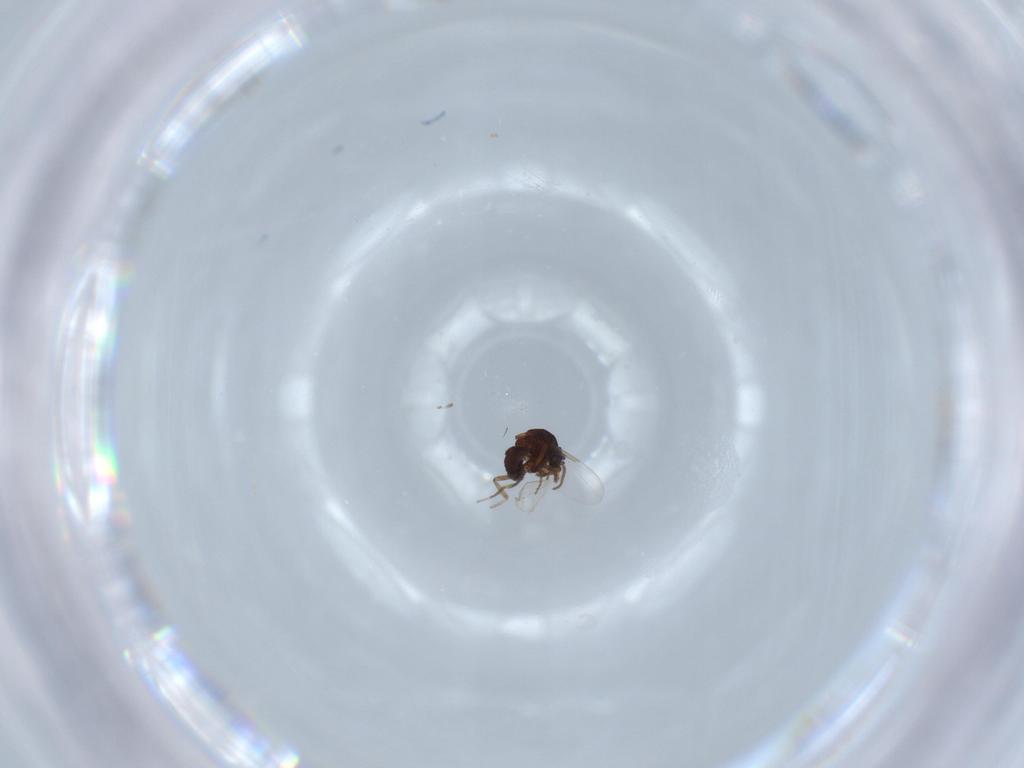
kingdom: Animalia
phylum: Arthropoda
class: Insecta
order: Diptera
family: Ceratopogonidae
